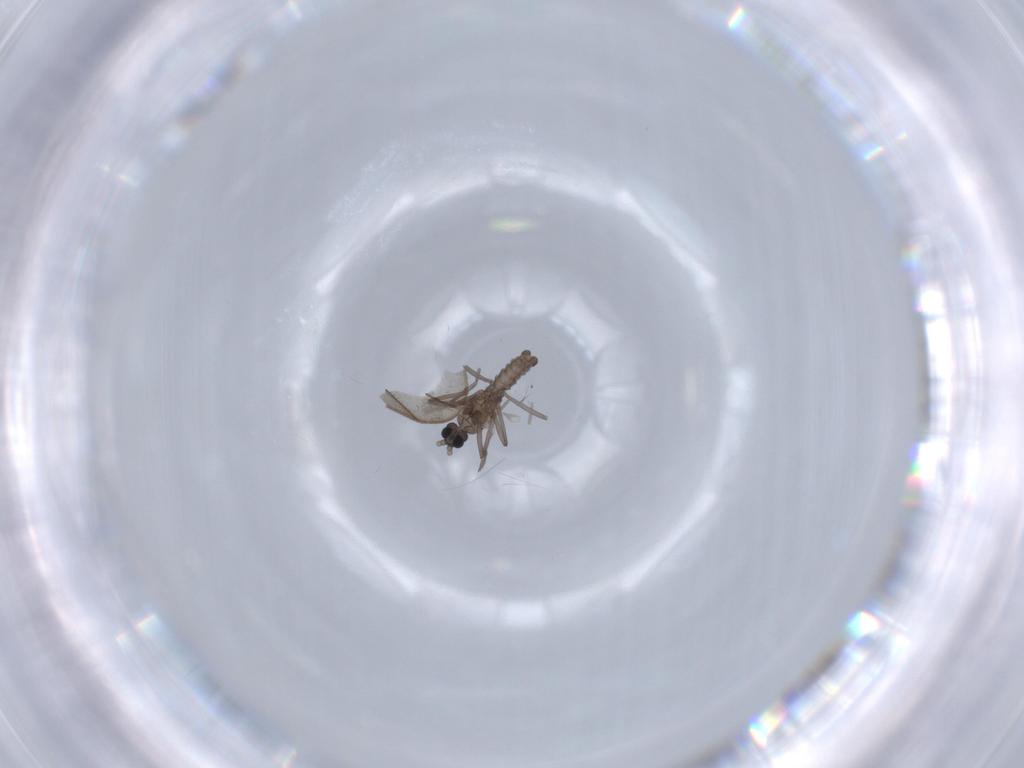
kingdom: Animalia
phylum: Arthropoda
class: Insecta
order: Diptera
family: Cecidomyiidae
